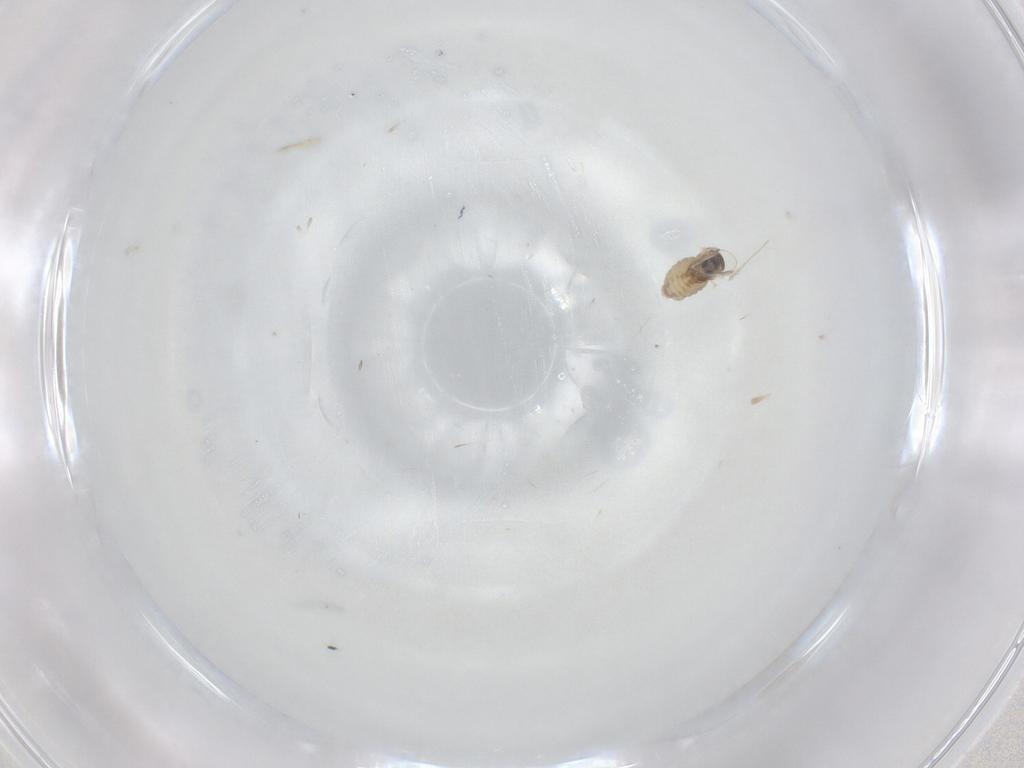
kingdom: Animalia
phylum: Arthropoda
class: Insecta
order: Diptera
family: Cecidomyiidae
